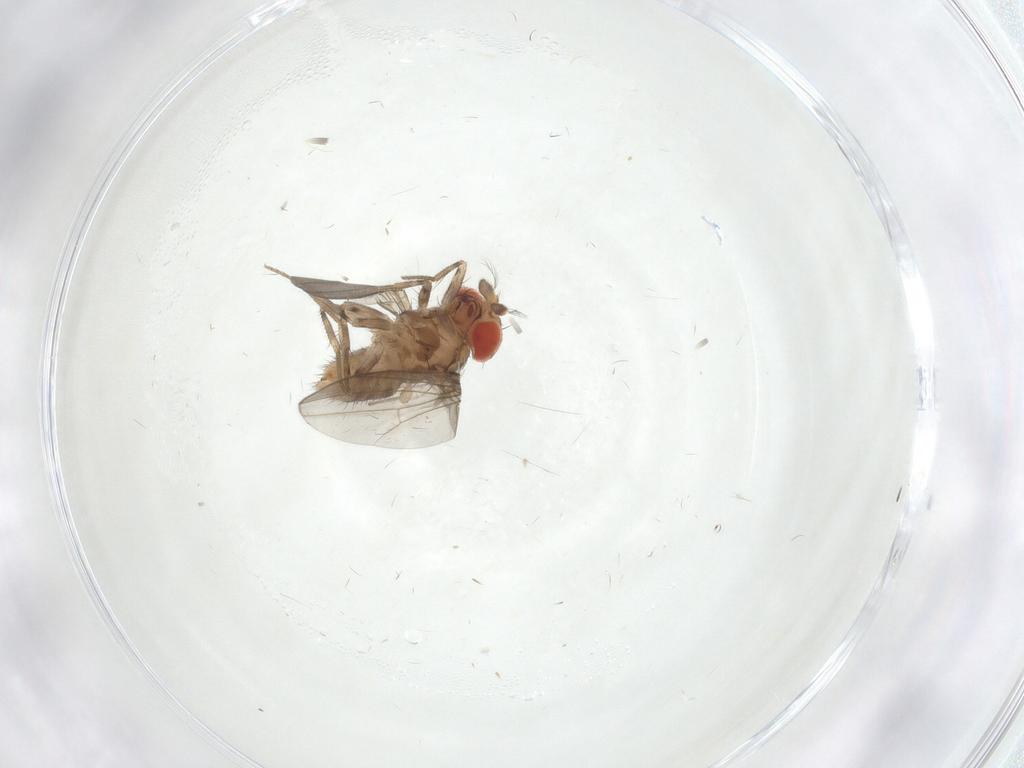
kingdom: Animalia
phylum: Arthropoda
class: Insecta
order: Diptera
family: Drosophilidae
